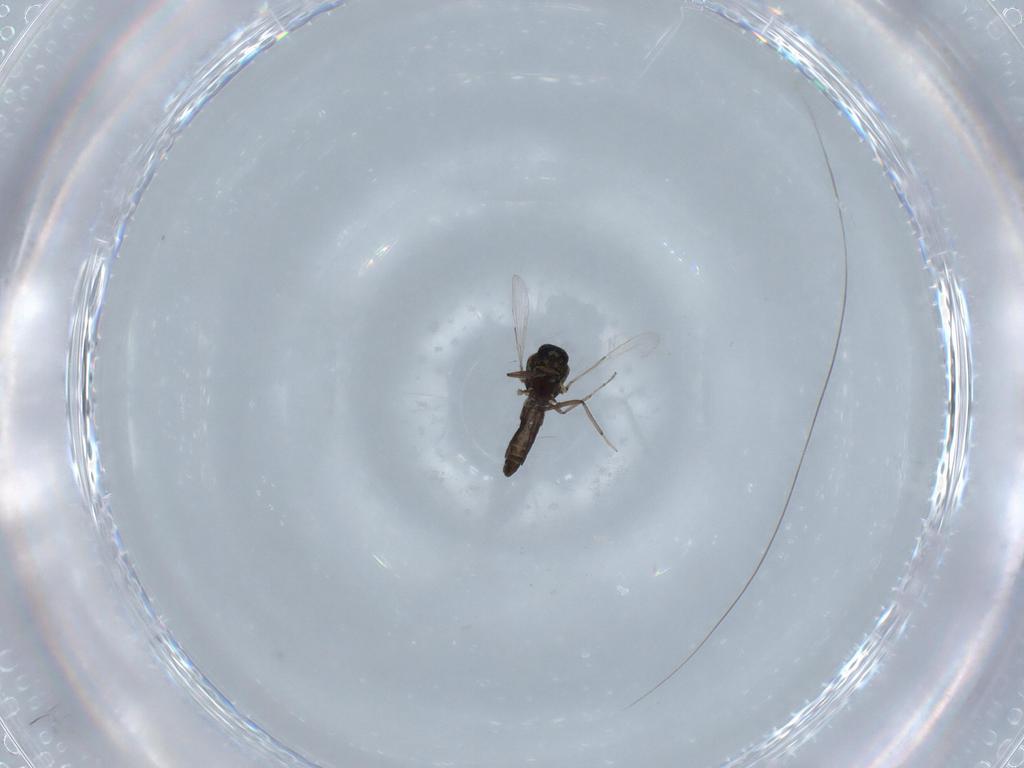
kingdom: Animalia
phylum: Arthropoda
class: Insecta
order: Diptera
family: Ceratopogonidae
